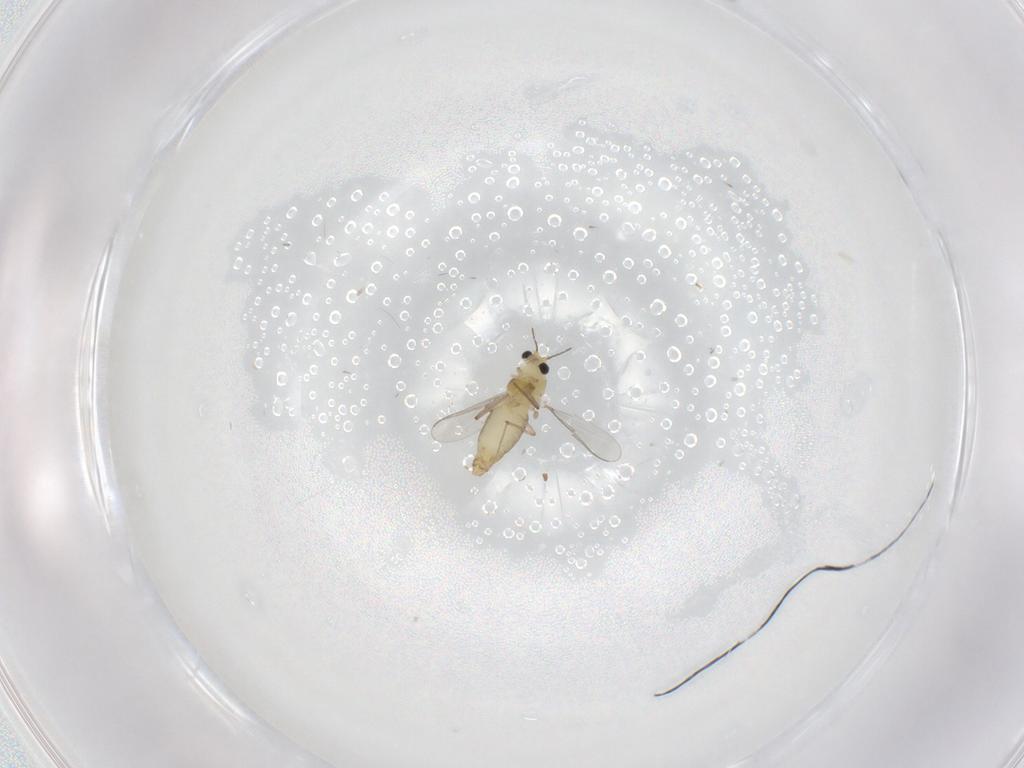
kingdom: Animalia
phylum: Arthropoda
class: Insecta
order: Diptera
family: Chironomidae
